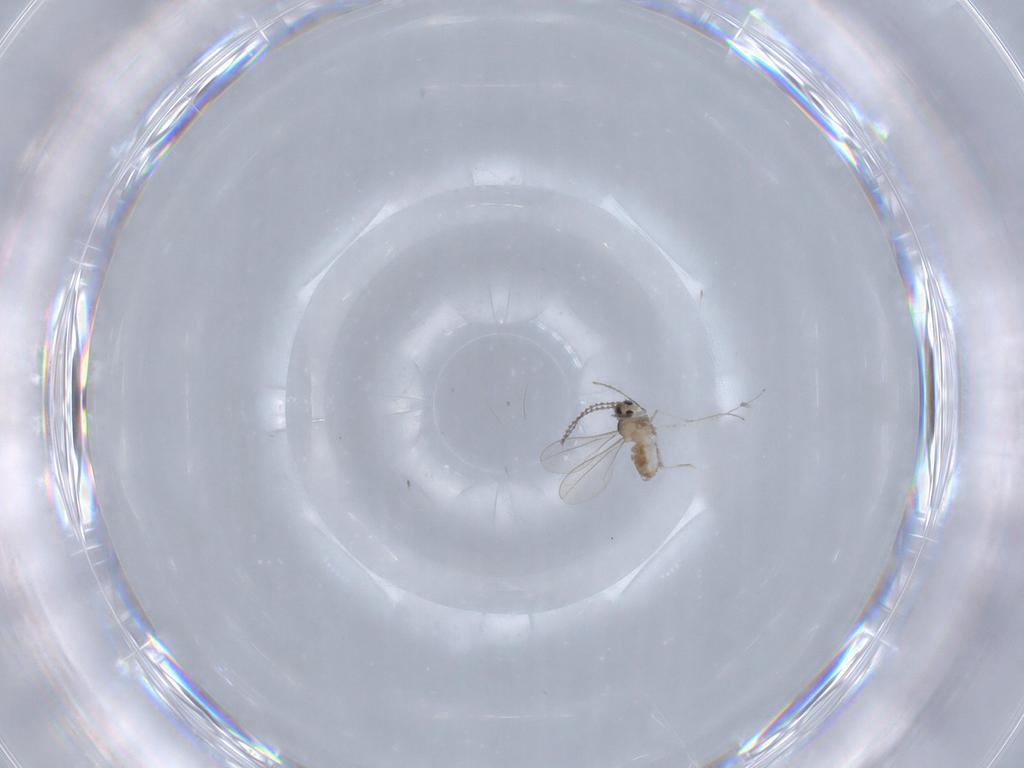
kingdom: Animalia
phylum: Arthropoda
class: Insecta
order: Diptera
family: Cecidomyiidae
